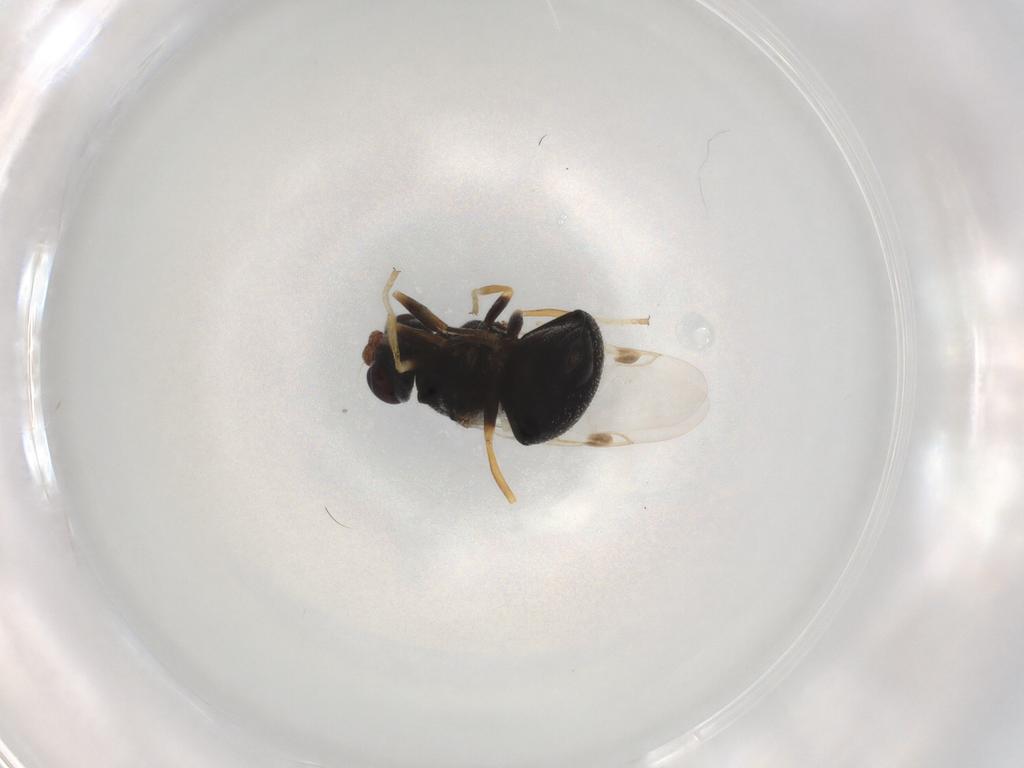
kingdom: Animalia
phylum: Arthropoda
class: Insecta
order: Diptera
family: Stratiomyidae
